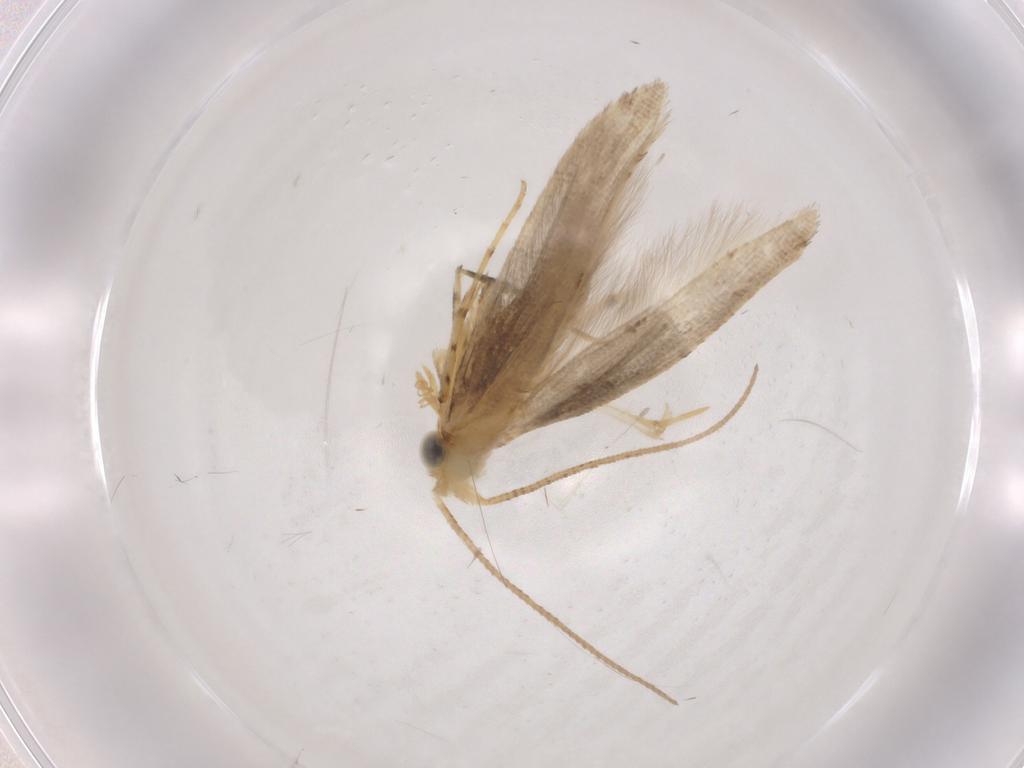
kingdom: Animalia
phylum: Arthropoda
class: Insecta
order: Lepidoptera
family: Argyresthiidae
